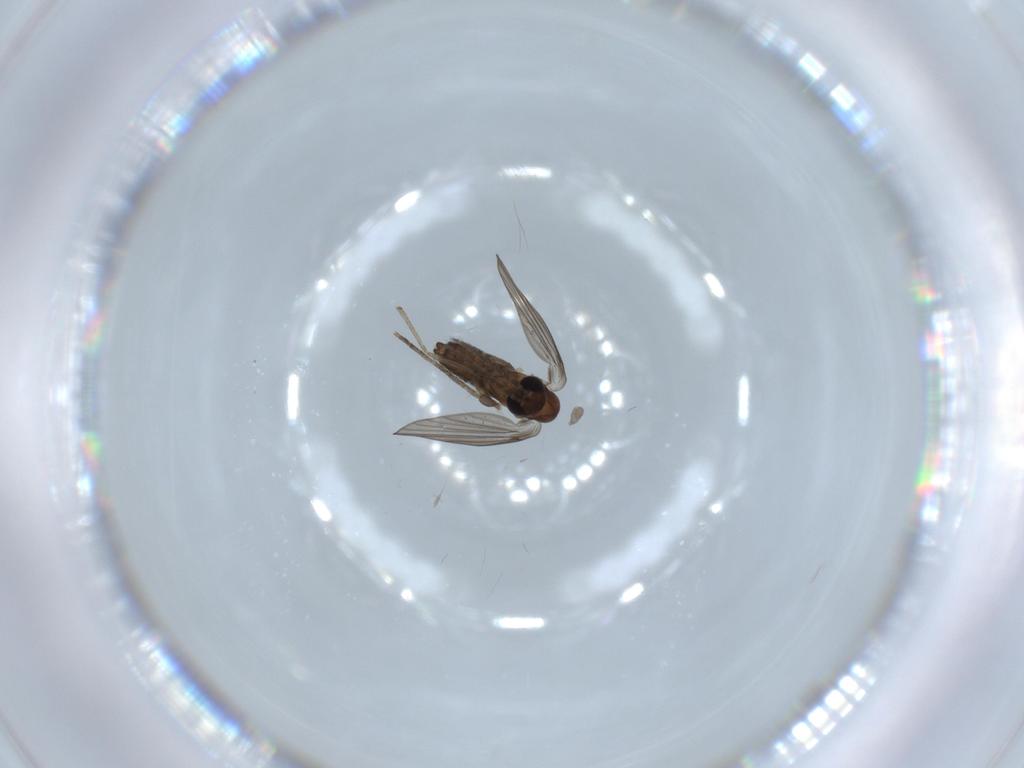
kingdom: Animalia
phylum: Arthropoda
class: Insecta
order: Diptera
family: Psychodidae
